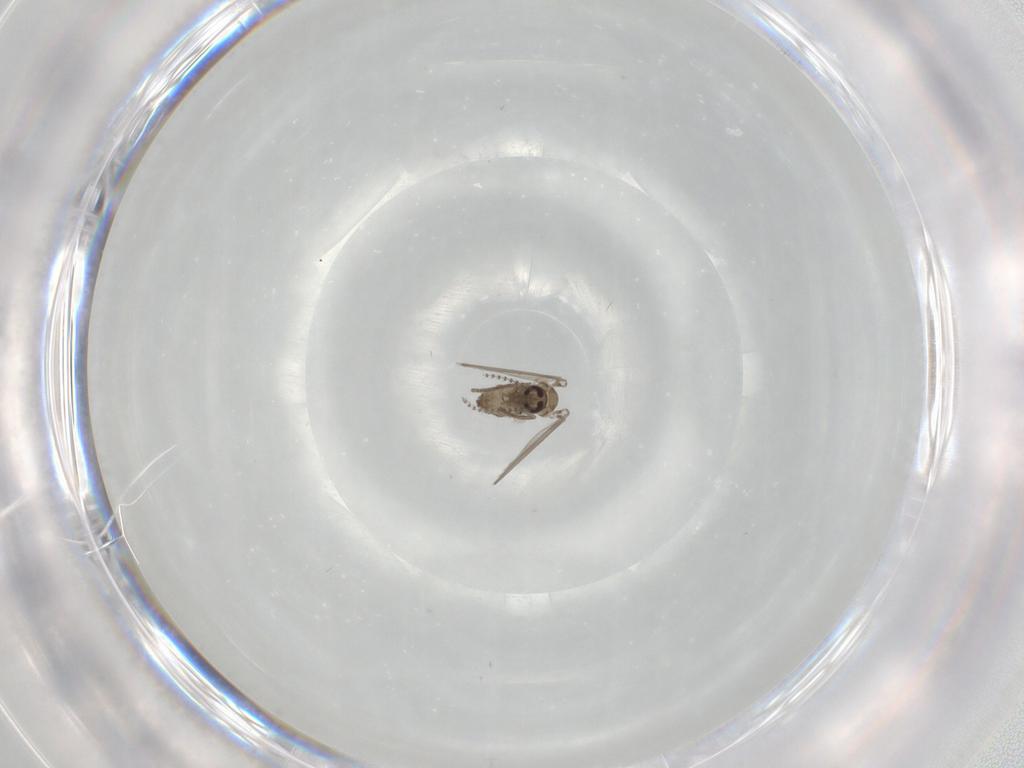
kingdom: Animalia
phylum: Arthropoda
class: Insecta
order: Diptera
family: Psychodidae
